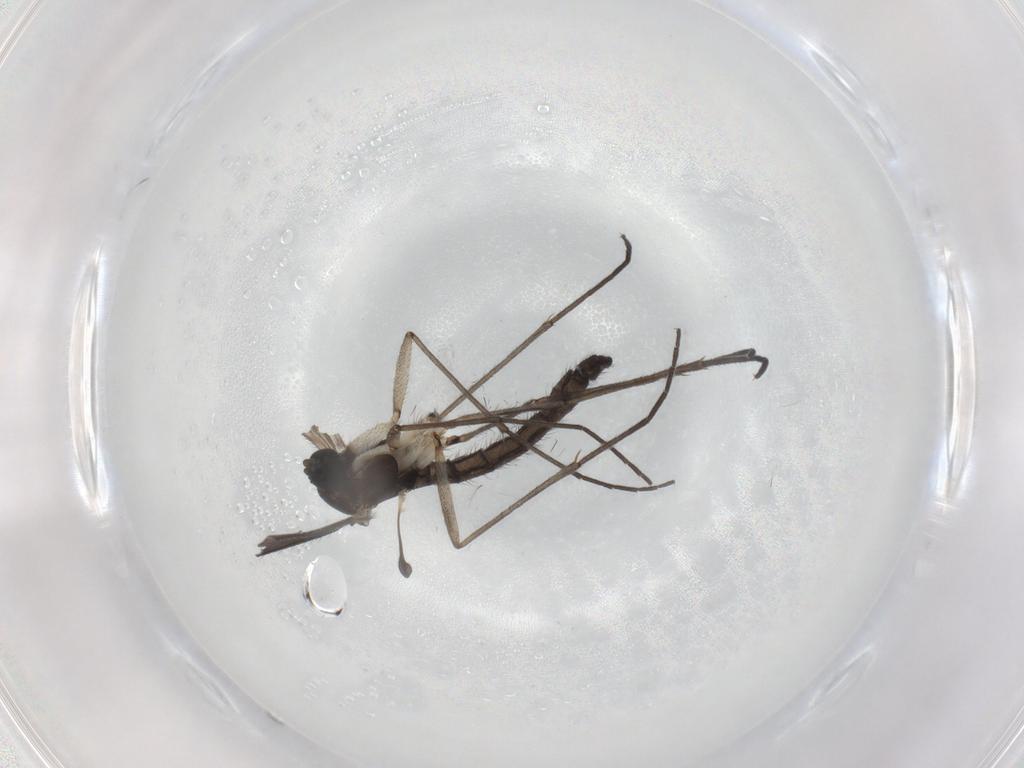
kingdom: Animalia
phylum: Arthropoda
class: Insecta
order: Diptera
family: Sciaridae
